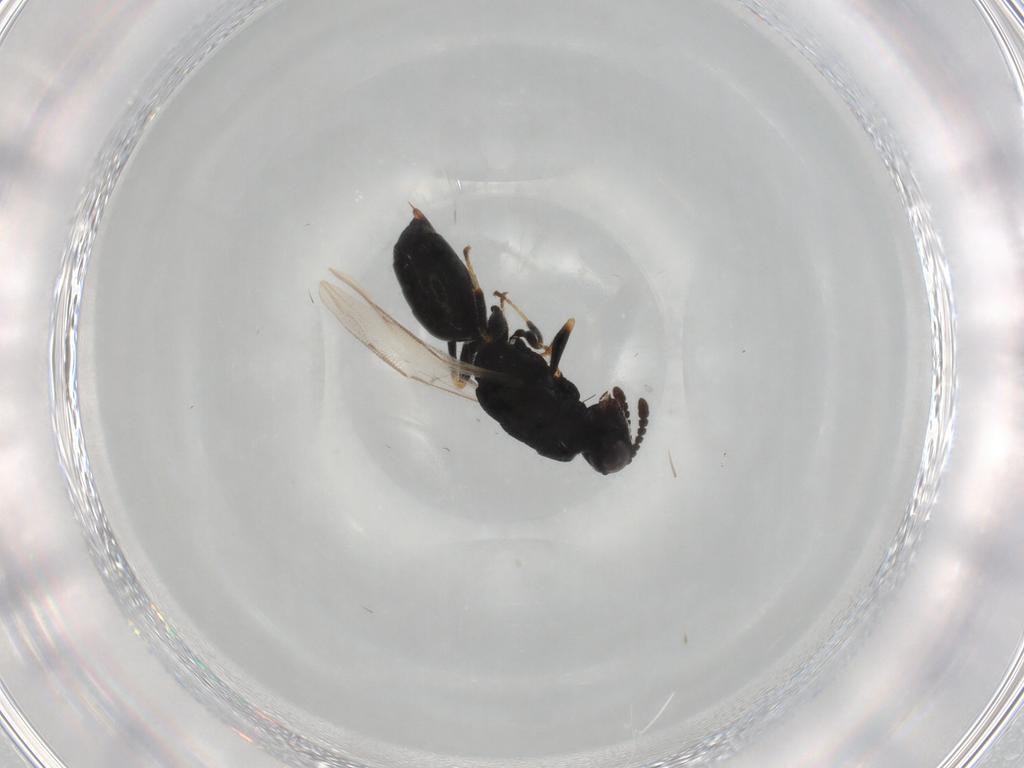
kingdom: Animalia
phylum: Arthropoda
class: Insecta
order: Hymenoptera
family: Eurytomidae
